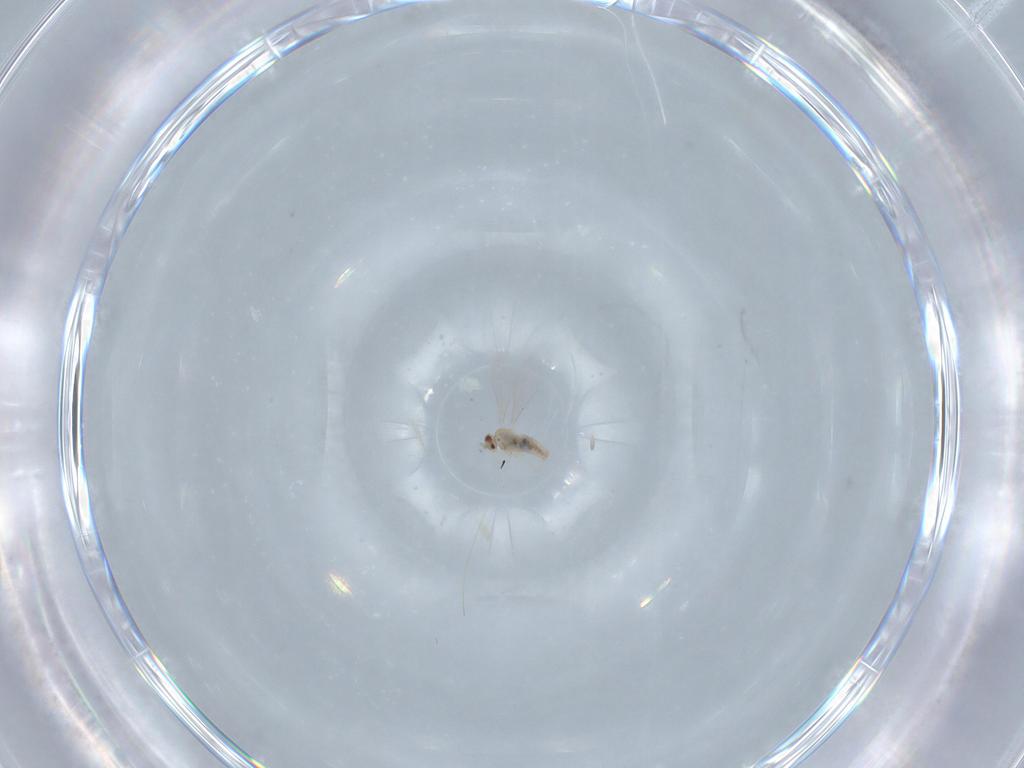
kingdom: Animalia
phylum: Arthropoda
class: Insecta
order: Diptera
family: Cecidomyiidae
